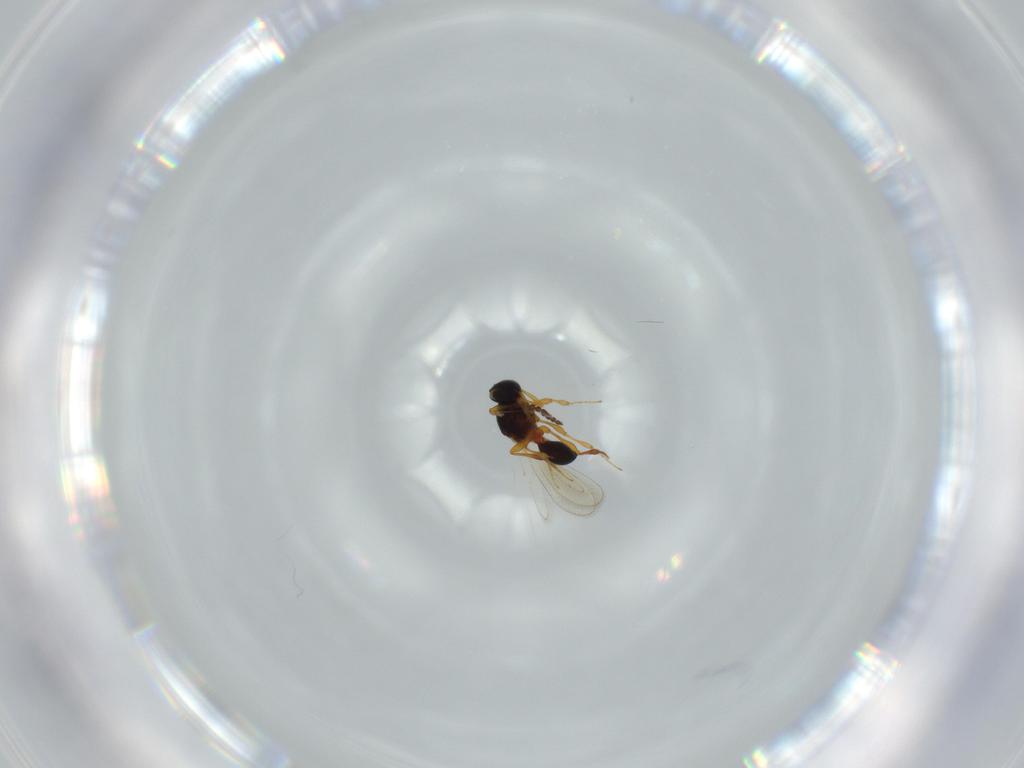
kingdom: Animalia
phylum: Arthropoda
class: Insecta
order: Hymenoptera
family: Platygastridae
